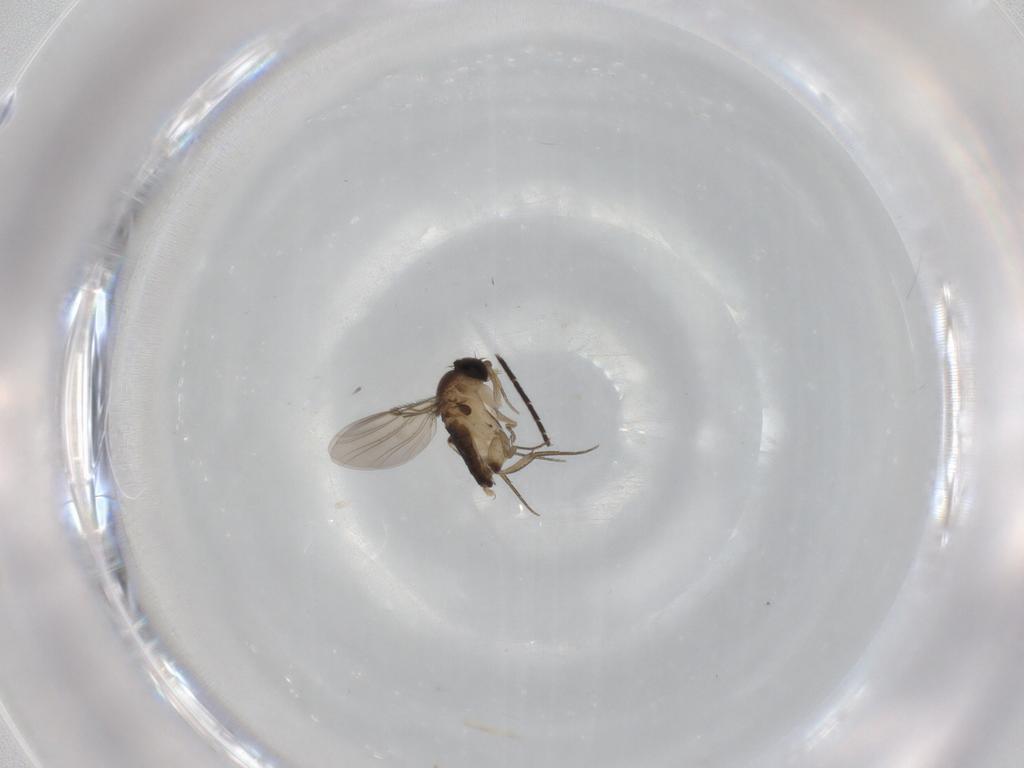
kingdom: Animalia
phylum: Arthropoda
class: Insecta
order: Diptera
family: Phoridae
